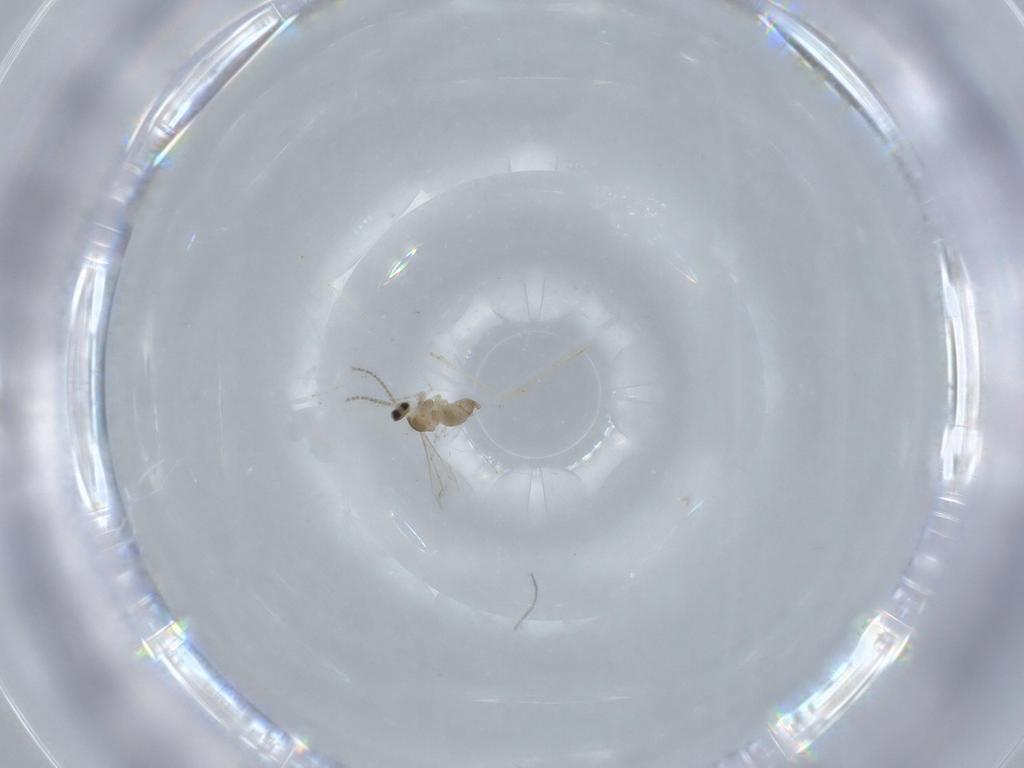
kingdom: Animalia
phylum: Arthropoda
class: Insecta
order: Diptera
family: Cecidomyiidae
